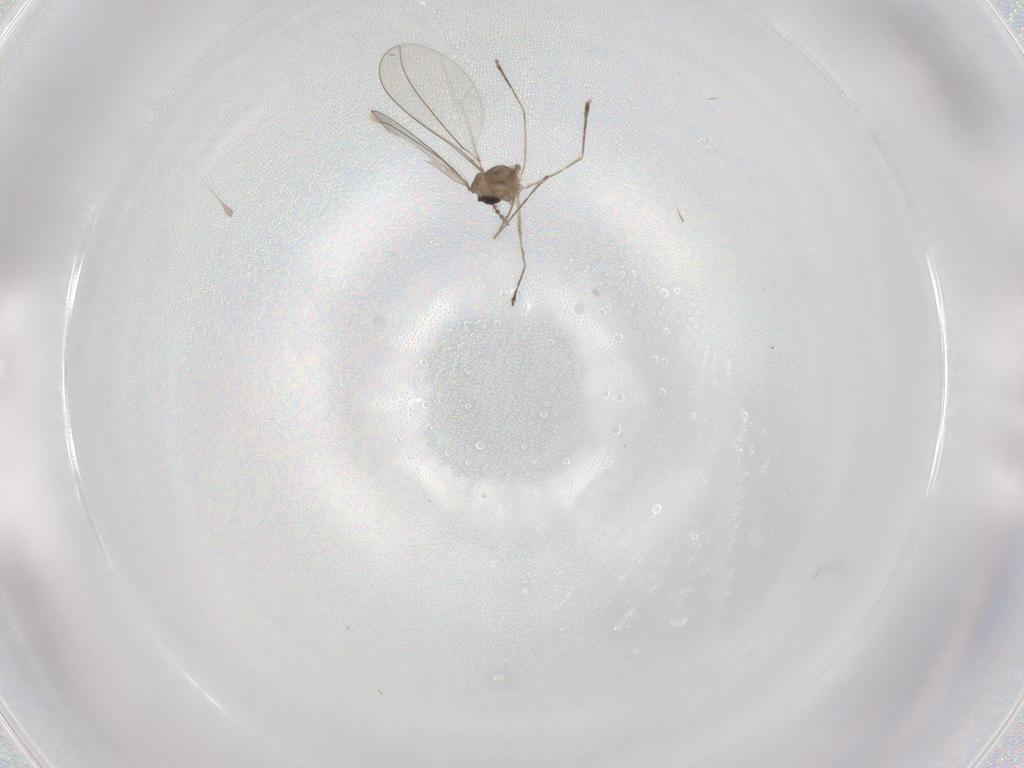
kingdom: Animalia
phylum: Arthropoda
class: Insecta
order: Diptera
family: Cecidomyiidae
